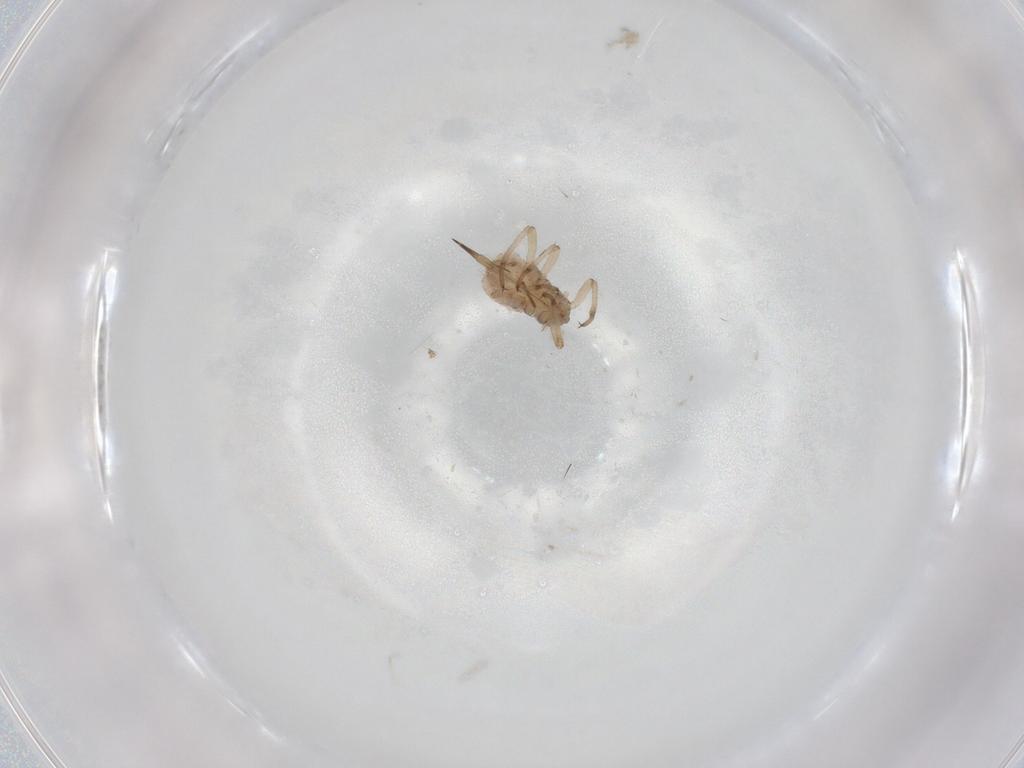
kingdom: Animalia
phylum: Arthropoda
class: Insecta
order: Hemiptera
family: Aphididae
